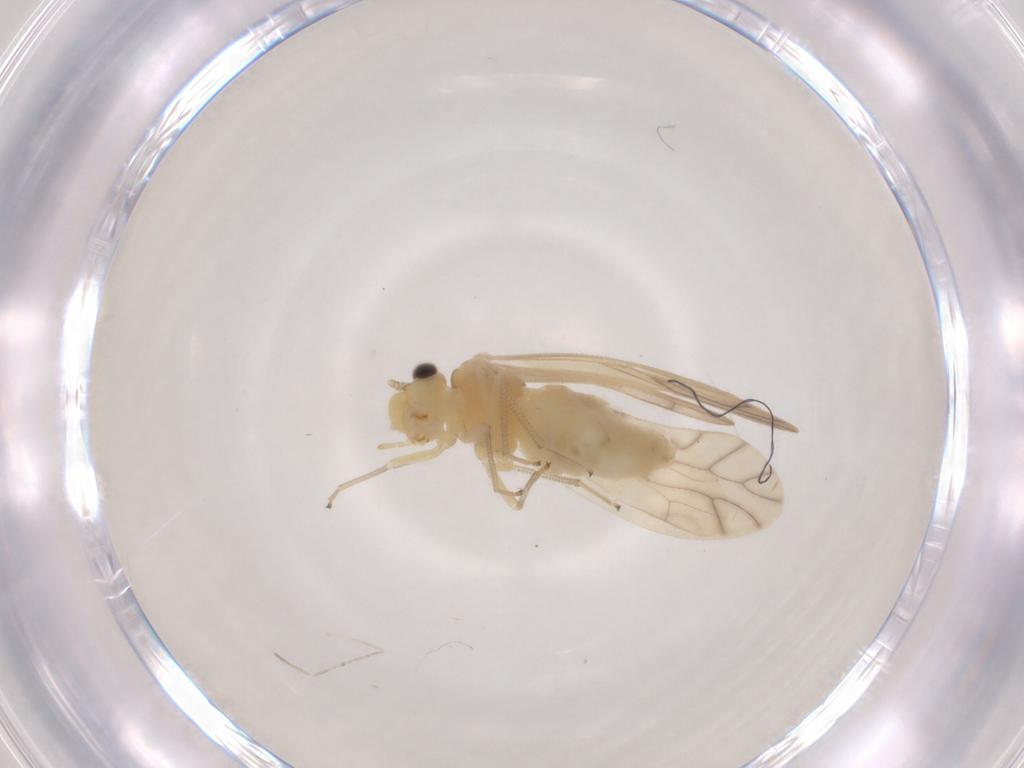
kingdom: Animalia
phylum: Arthropoda
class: Insecta
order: Psocodea
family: Caeciliusidae
